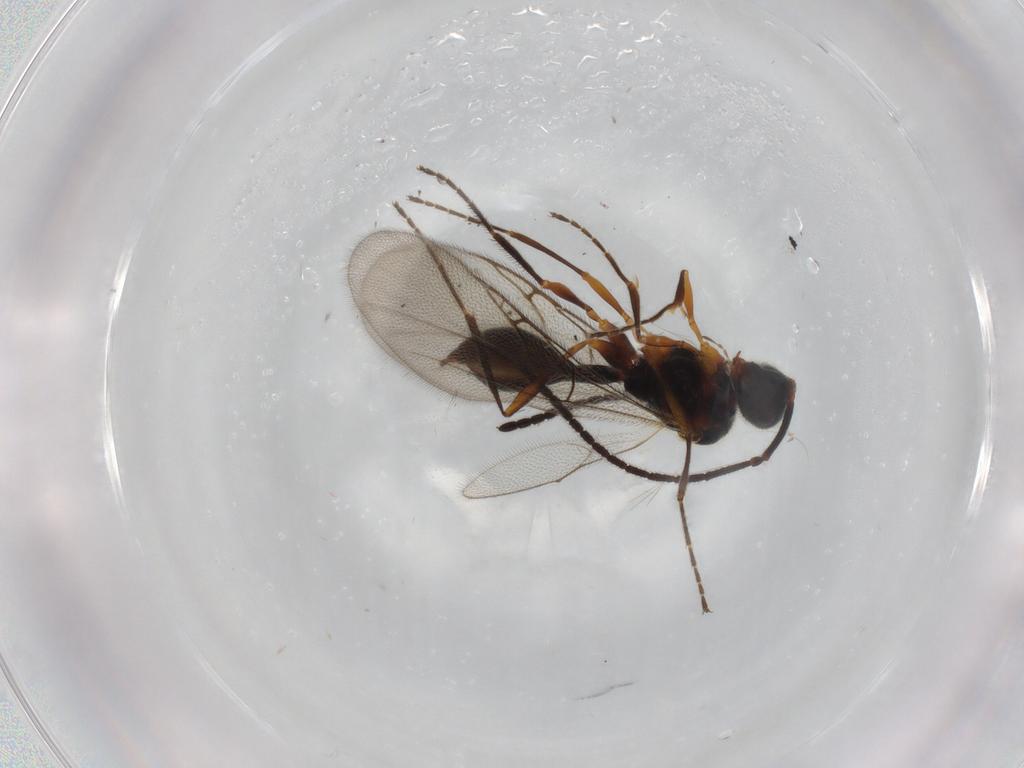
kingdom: Animalia
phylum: Arthropoda
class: Insecta
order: Hymenoptera
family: Diapriidae
